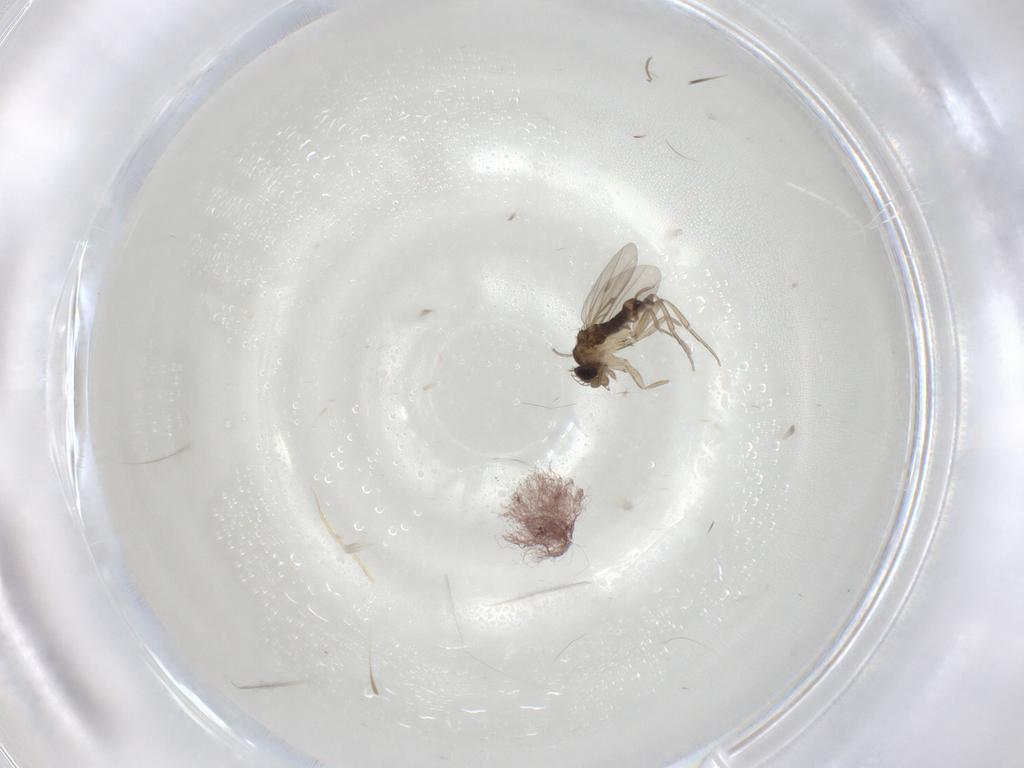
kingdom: Animalia
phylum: Arthropoda
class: Insecta
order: Diptera
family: Phoridae
